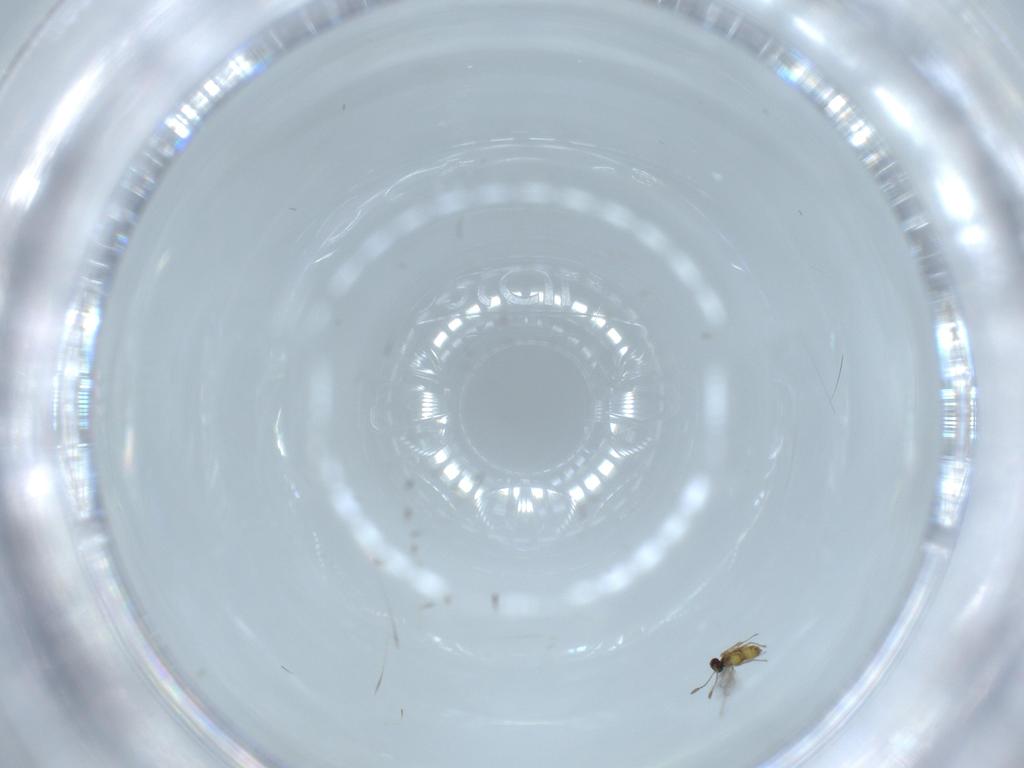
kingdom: Animalia
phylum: Arthropoda
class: Insecta
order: Hymenoptera
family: Mymaridae
